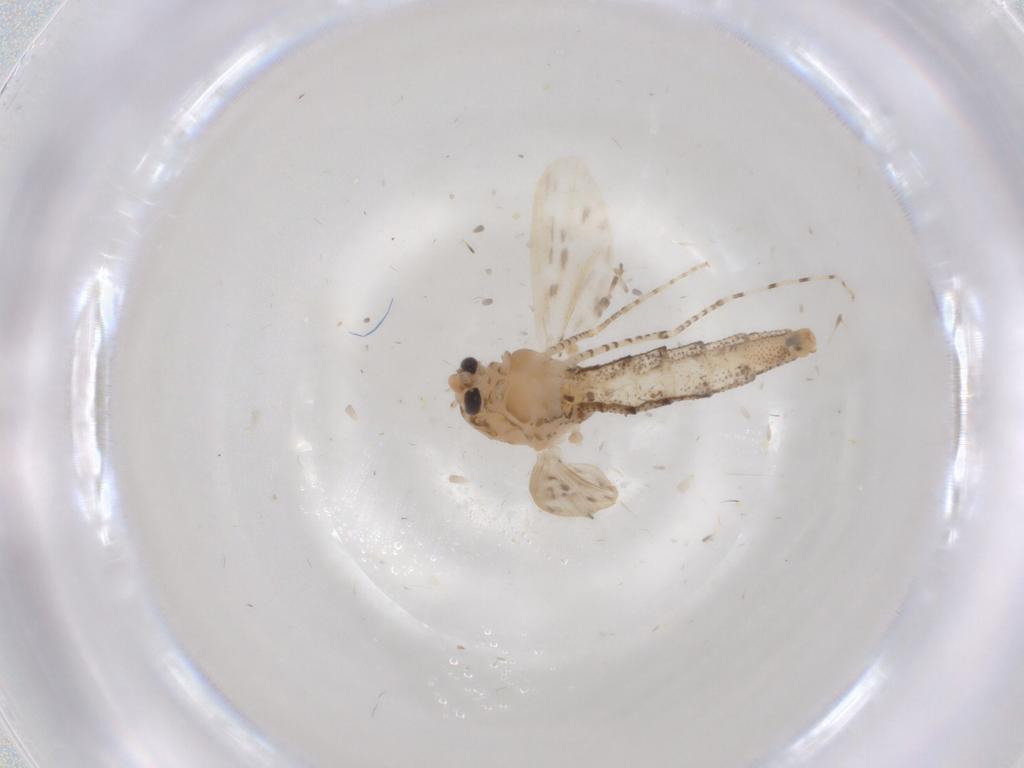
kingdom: Animalia
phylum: Arthropoda
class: Insecta
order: Diptera
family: Chaoboridae
